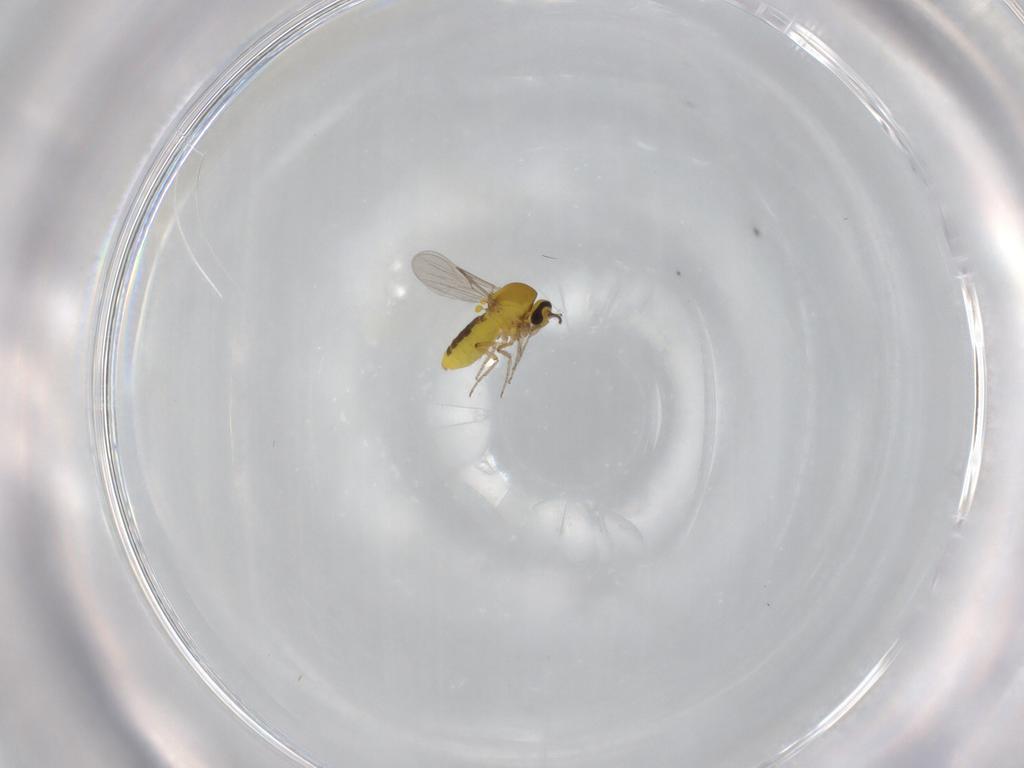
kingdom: Animalia
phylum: Arthropoda
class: Insecta
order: Diptera
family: Ceratopogonidae
